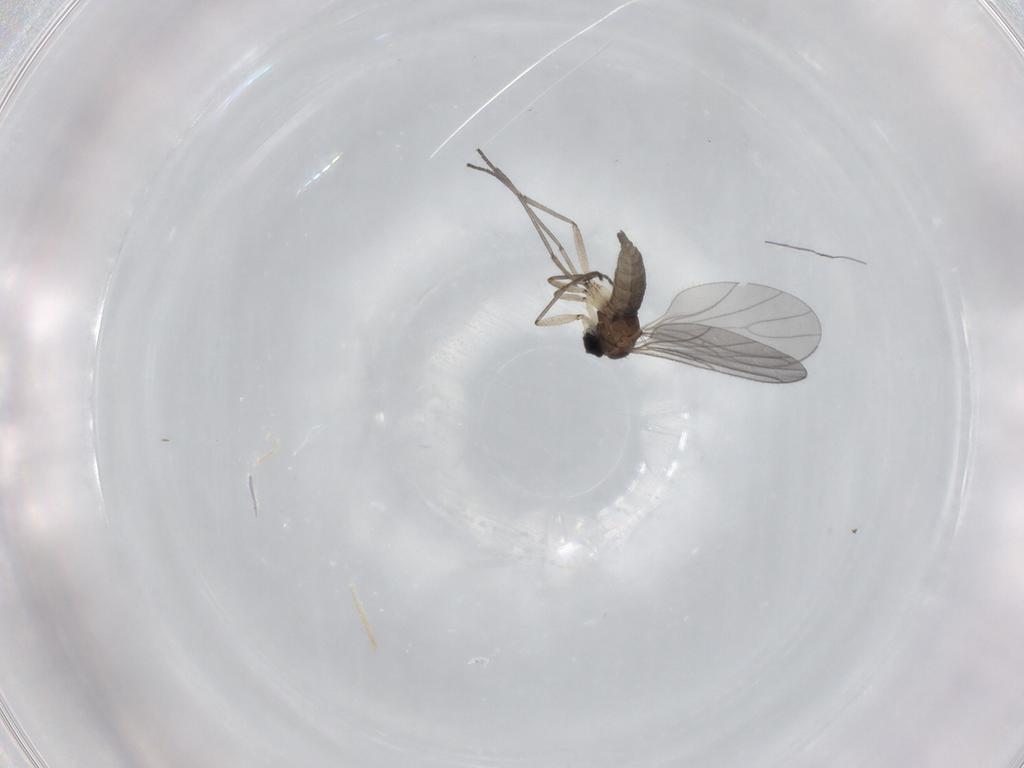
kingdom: Animalia
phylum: Arthropoda
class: Insecta
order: Diptera
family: Sciaridae
